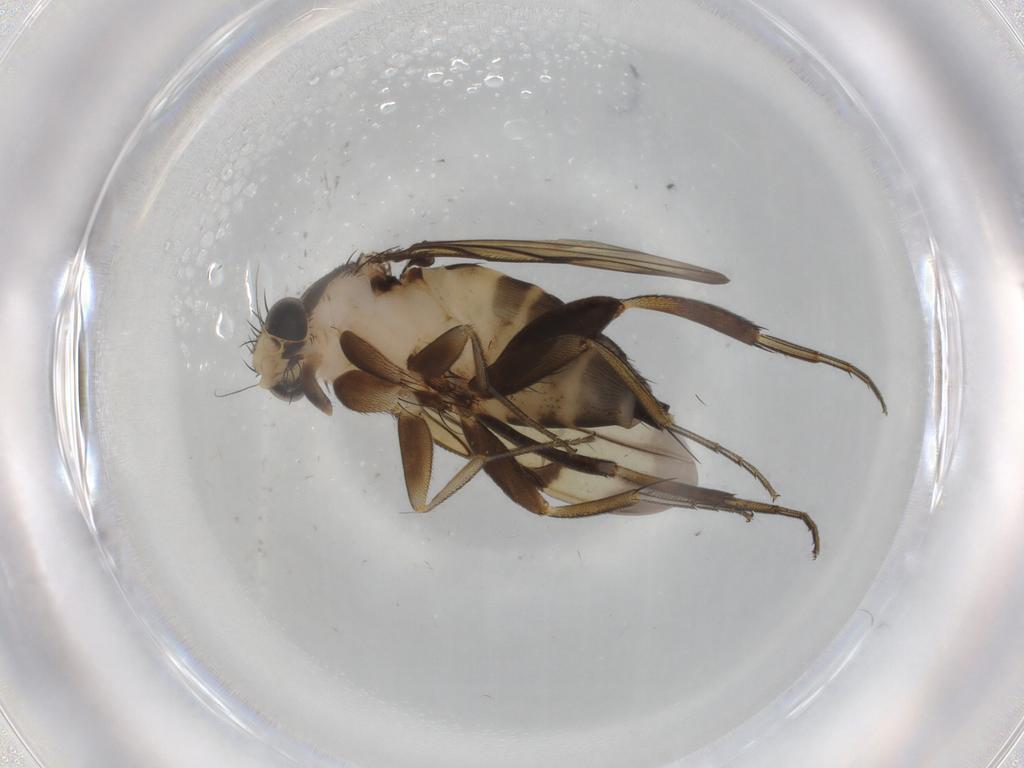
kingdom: Animalia
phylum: Arthropoda
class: Insecta
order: Diptera
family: Phoridae
